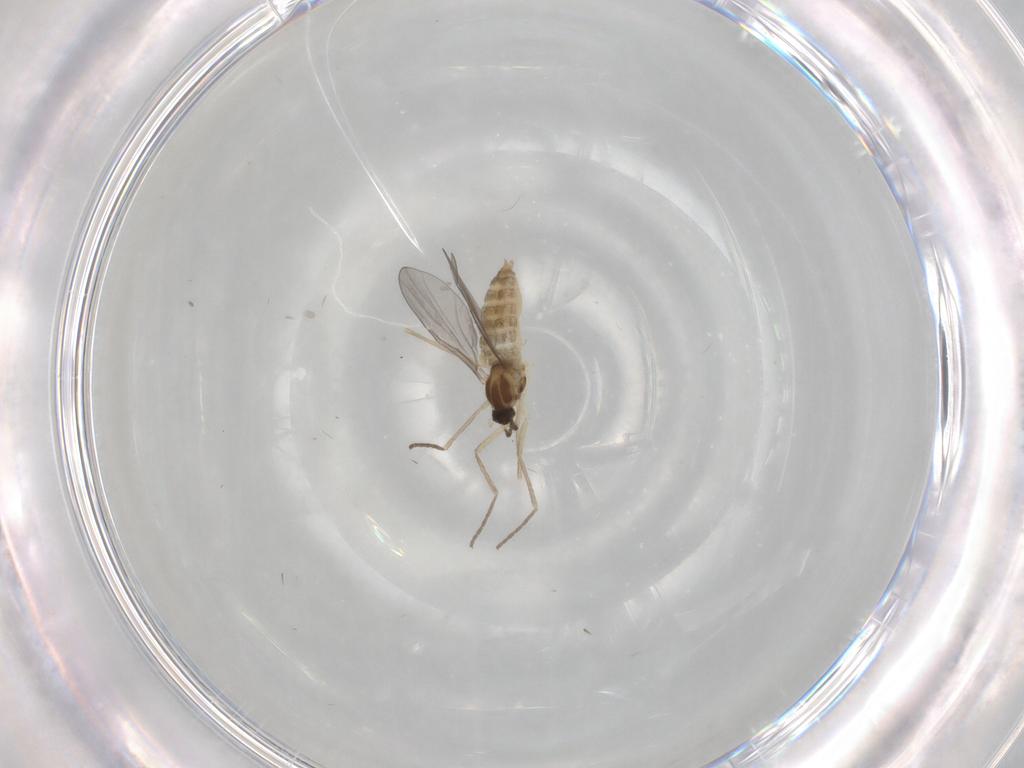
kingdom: Animalia
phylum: Arthropoda
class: Insecta
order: Diptera
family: Cecidomyiidae
